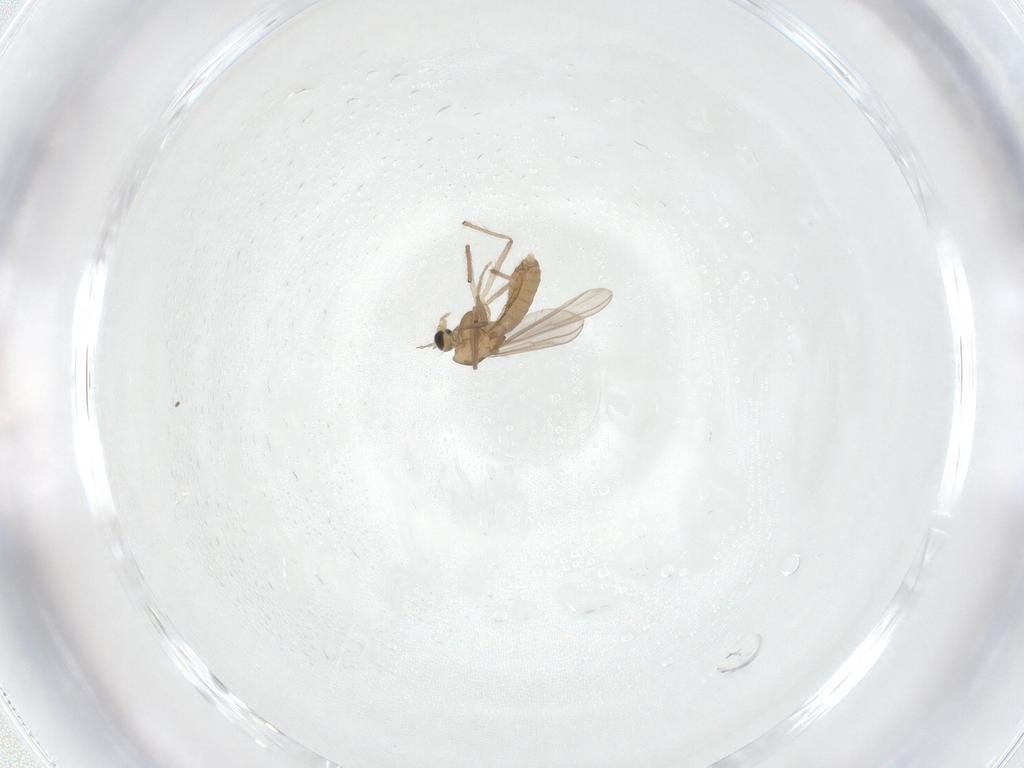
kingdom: Animalia
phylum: Arthropoda
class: Insecta
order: Diptera
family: Chironomidae
